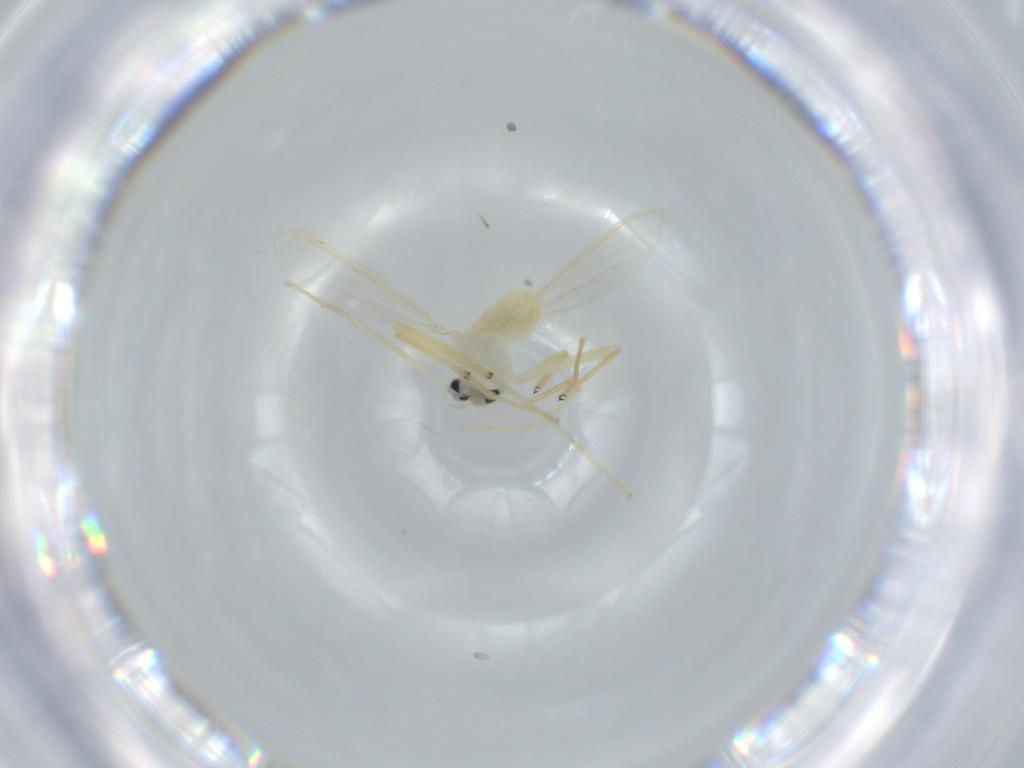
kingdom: Animalia
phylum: Arthropoda
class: Insecta
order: Diptera
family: Chironomidae
